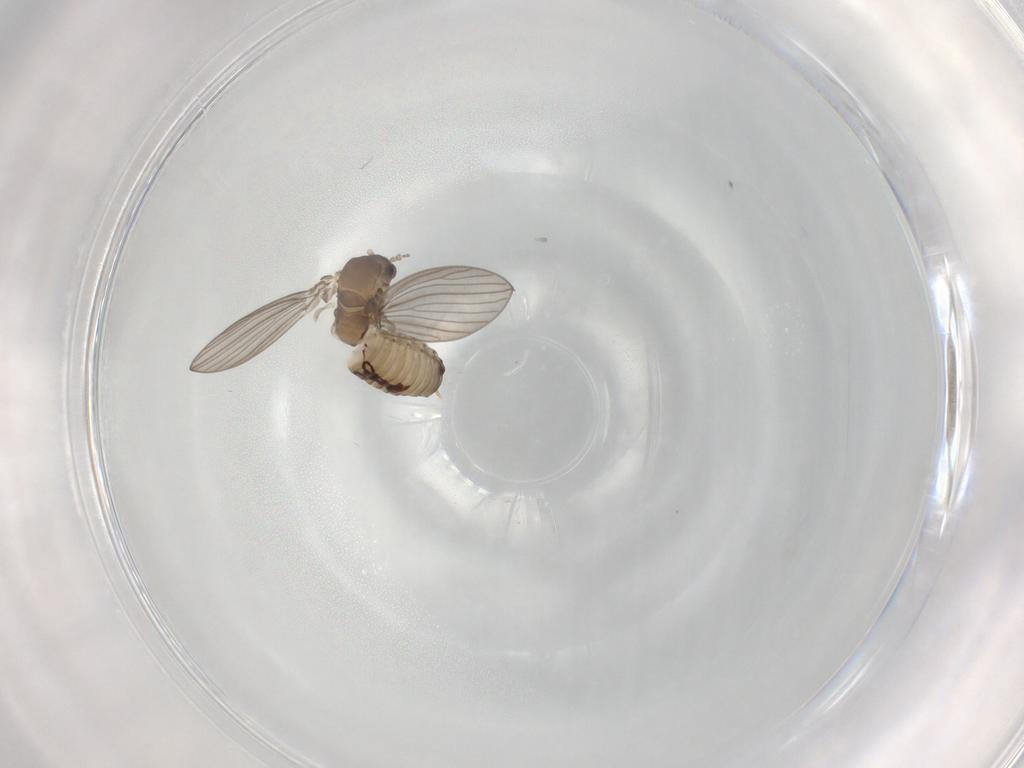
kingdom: Animalia
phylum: Arthropoda
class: Insecta
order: Diptera
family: Psychodidae
